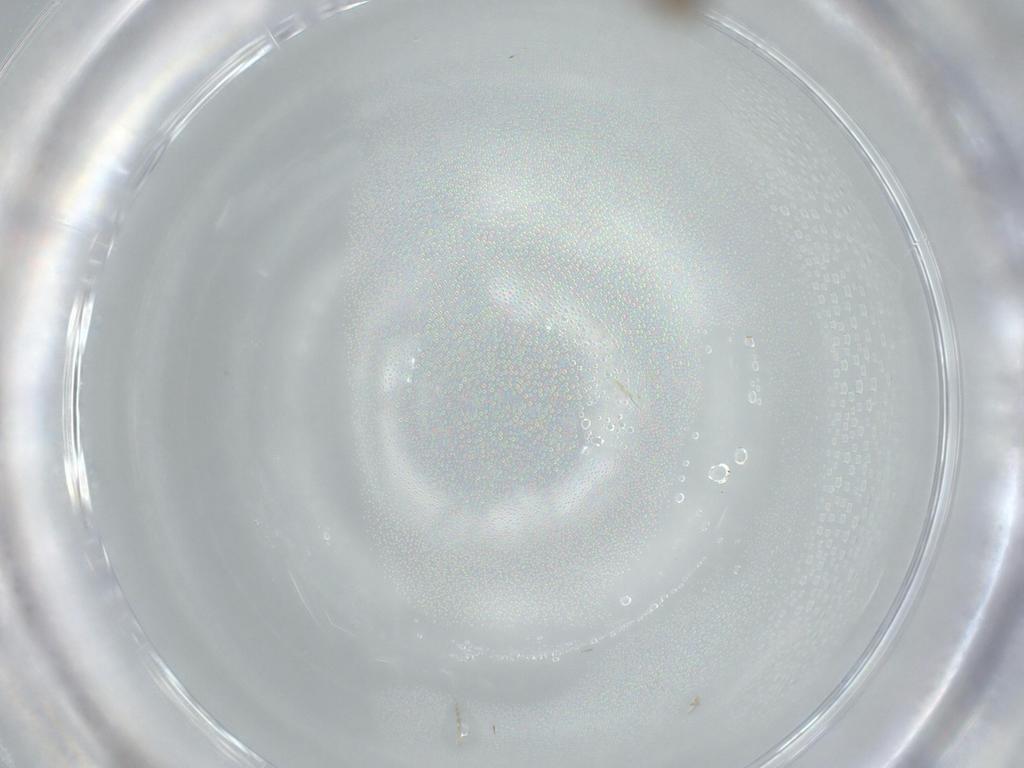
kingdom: Animalia
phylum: Arthropoda
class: Insecta
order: Diptera
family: Sciaridae
